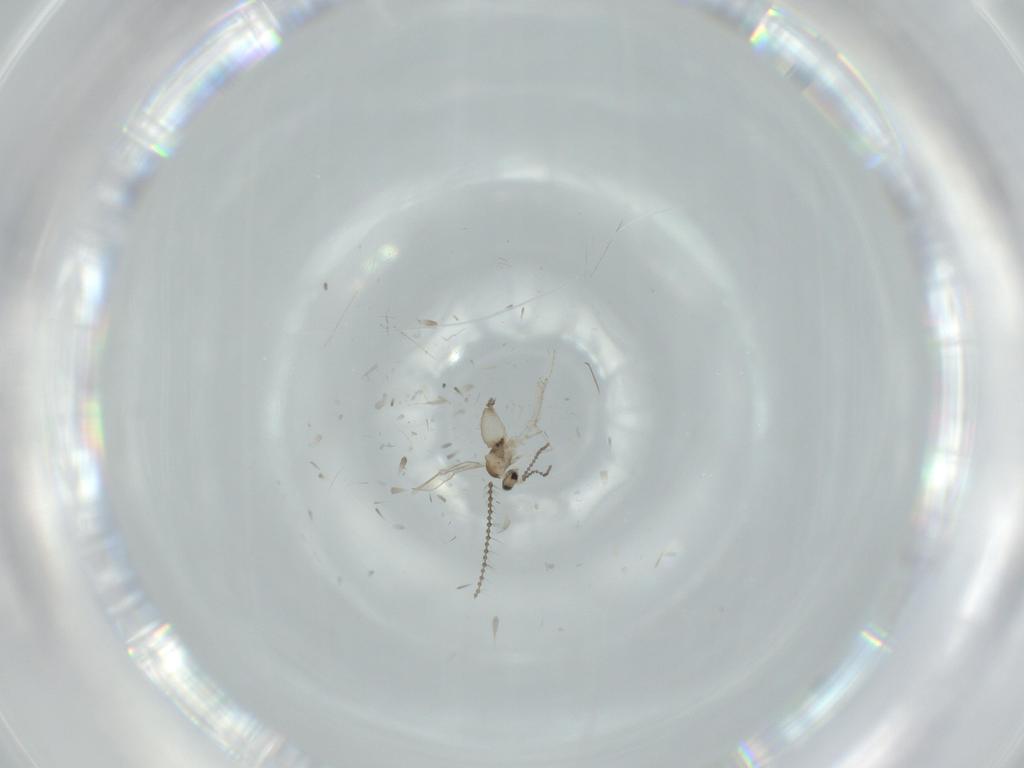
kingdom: Animalia
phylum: Arthropoda
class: Insecta
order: Diptera
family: Cecidomyiidae
